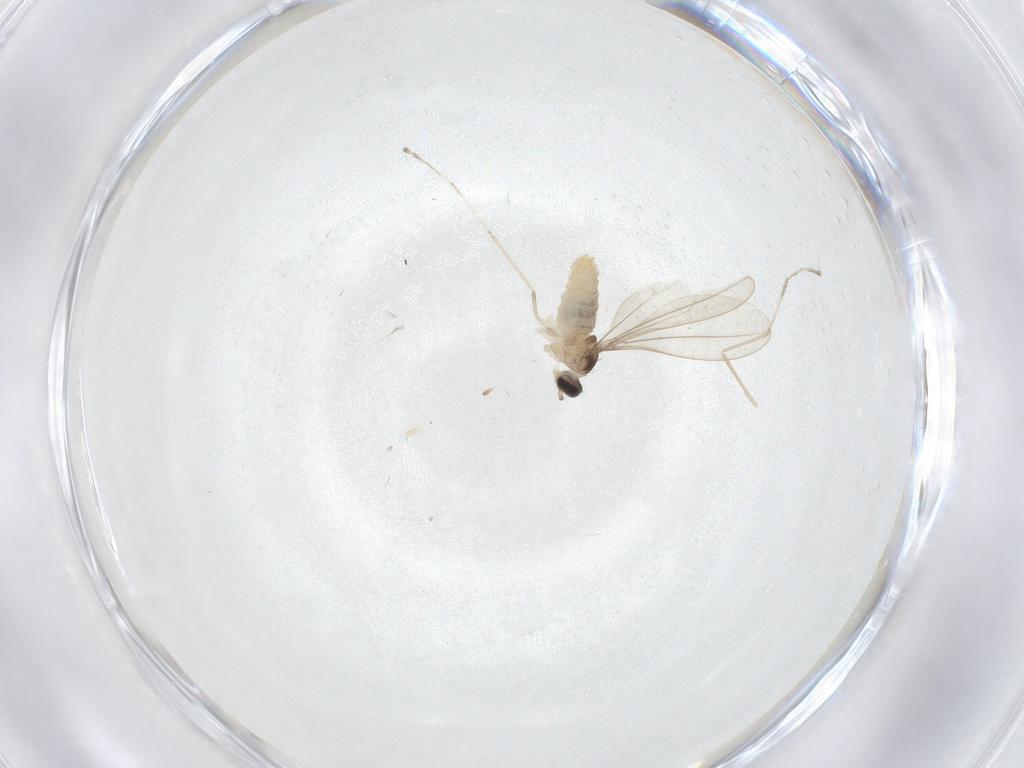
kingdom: Animalia
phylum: Arthropoda
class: Insecta
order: Diptera
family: Cecidomyiidae
